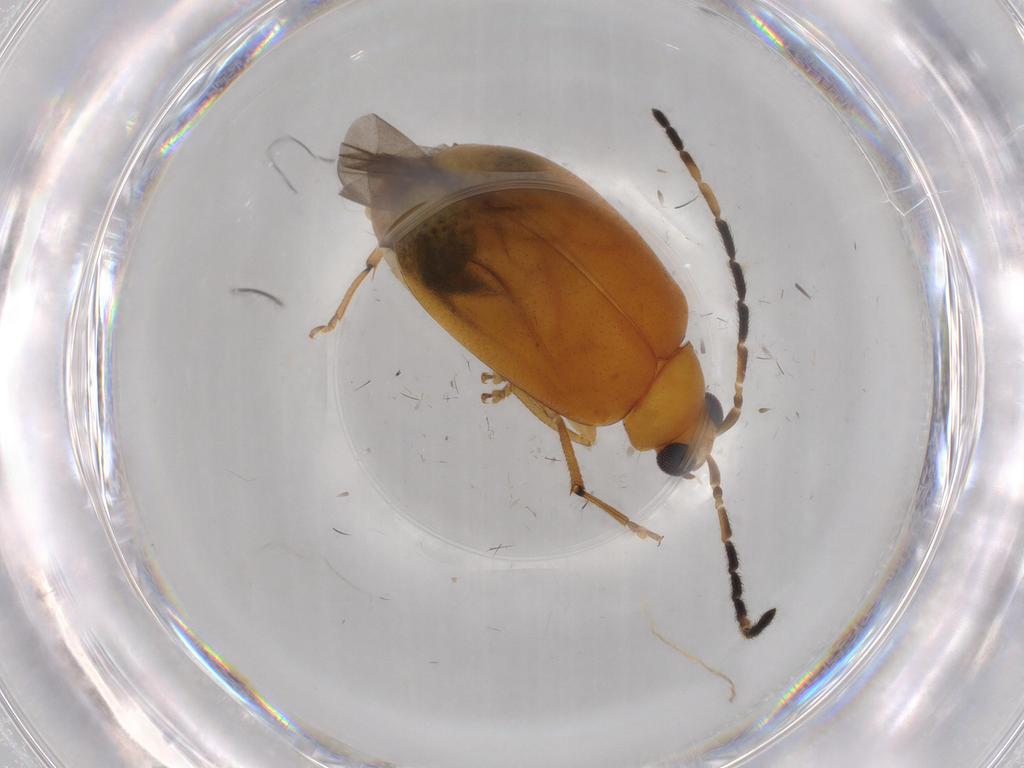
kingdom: Animalia
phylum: Arthropoda
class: Insecta
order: Coleoptera
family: Chrysomelidae
